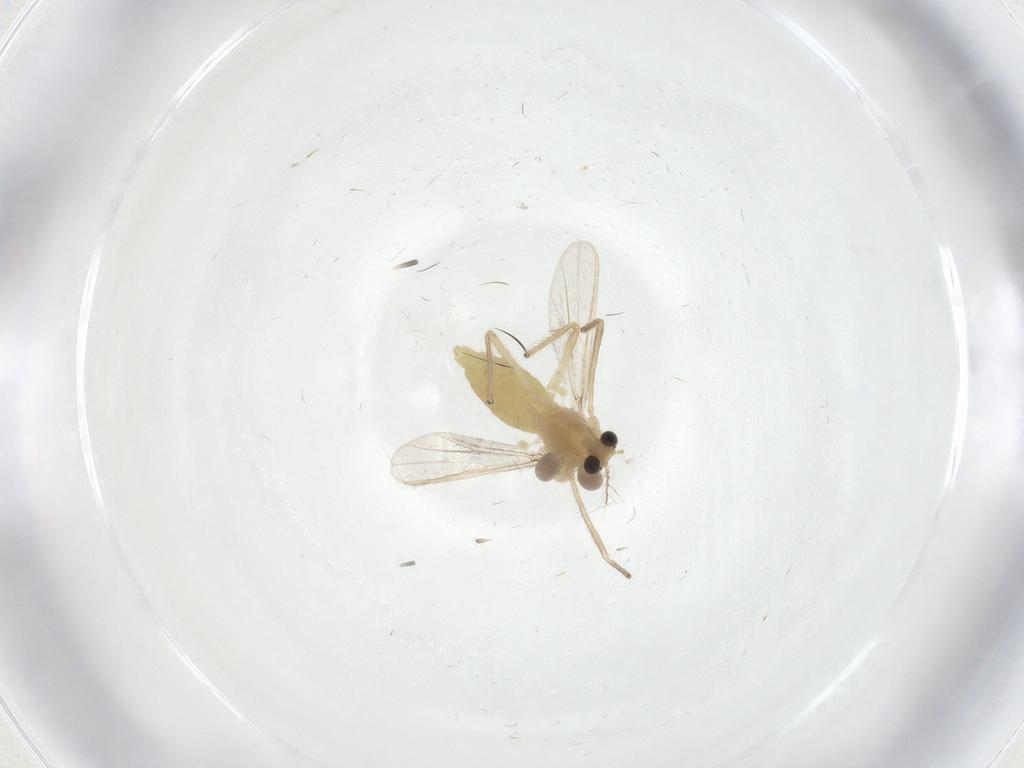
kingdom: Animalia
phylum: Arthropoda
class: Insecta
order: Diptera
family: Chironomidae
